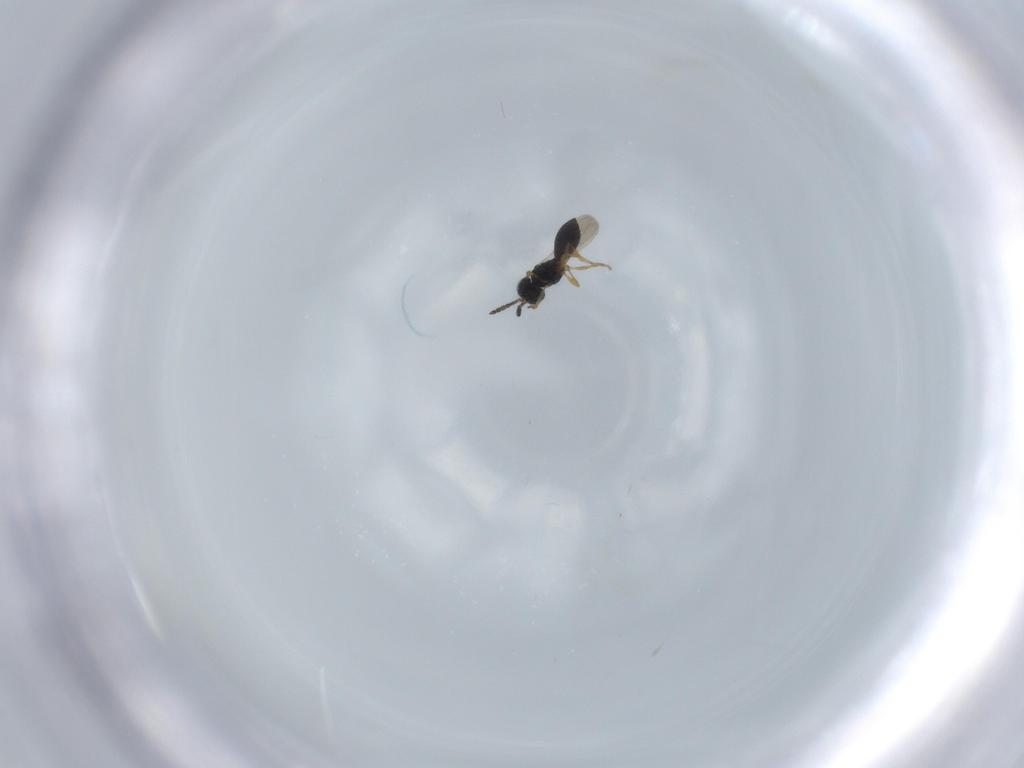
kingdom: Animalia
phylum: Arthropoda
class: Insecta
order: Hymenoptera
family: Scelionidae
